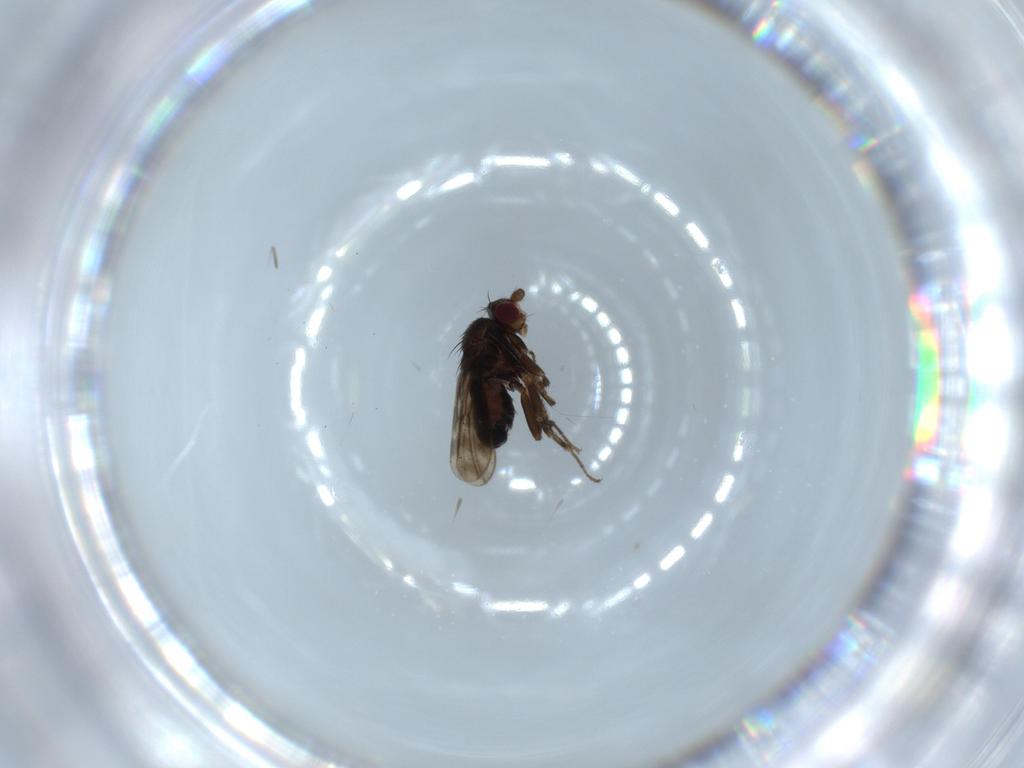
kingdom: Animalia
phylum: Arthropoda
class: Insecta
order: Diptera
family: Sphaeroceridae
